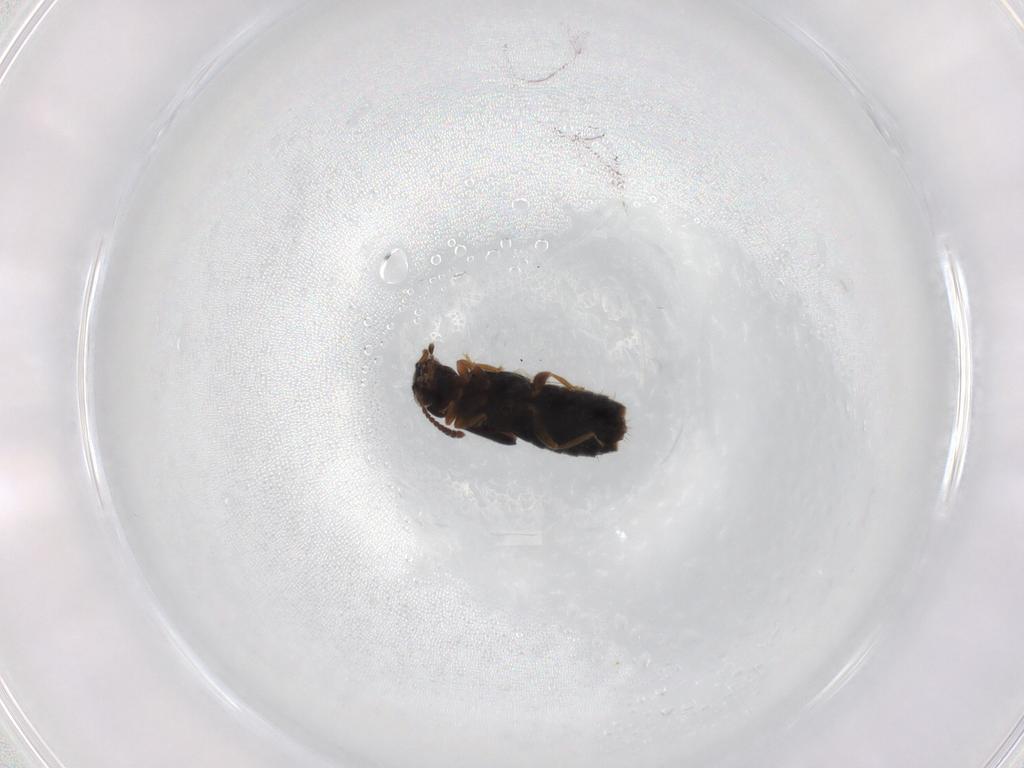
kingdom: Animalia
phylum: Arthropoda
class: Insecta
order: Coleoptera
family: Staphylinidae
